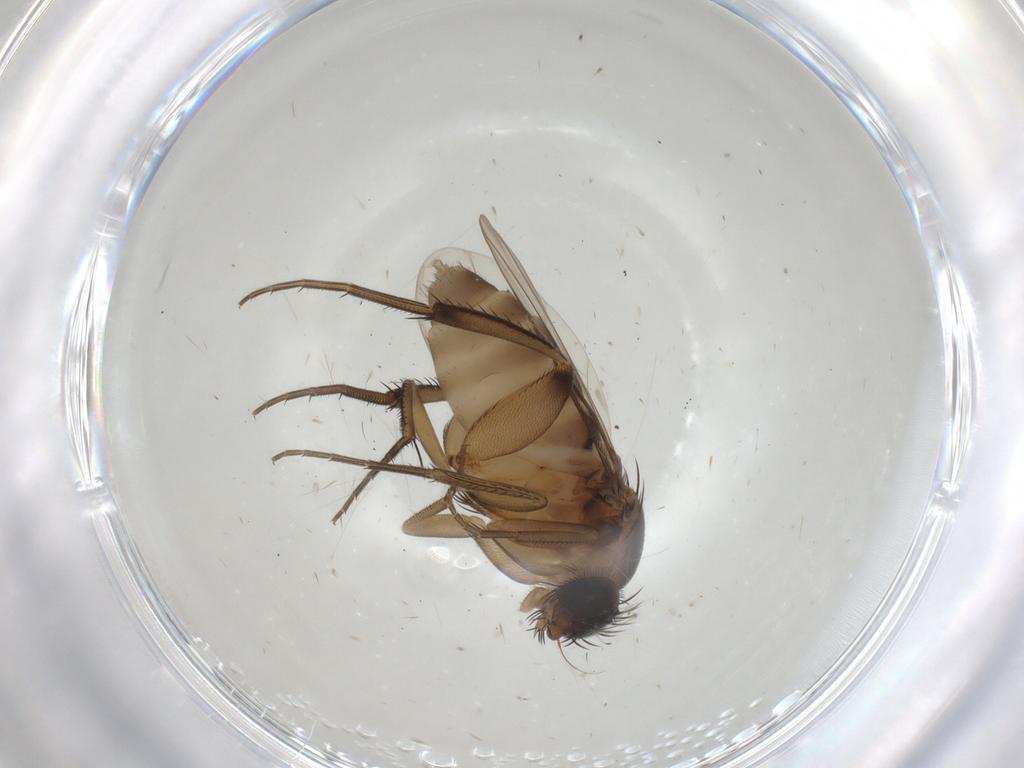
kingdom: Animalia
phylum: Arthropoda
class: Insecta
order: Diptera
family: Phoridae
